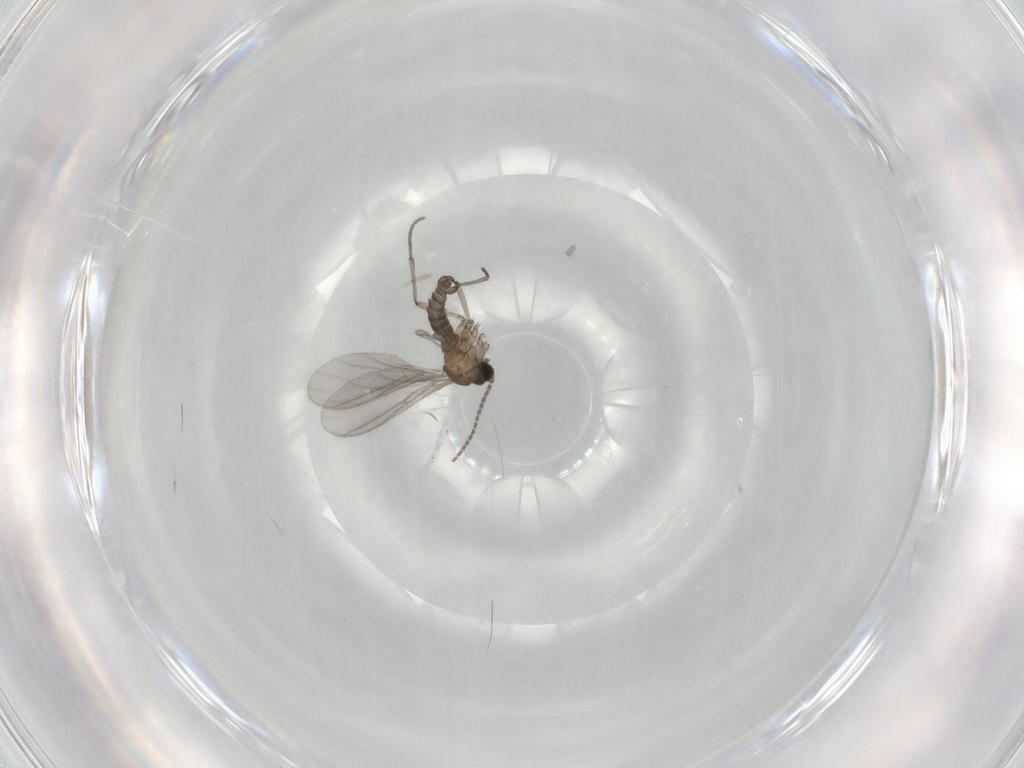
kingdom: Animalia
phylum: Arthropoda
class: Insecta
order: Diptera
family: Sciaridae
